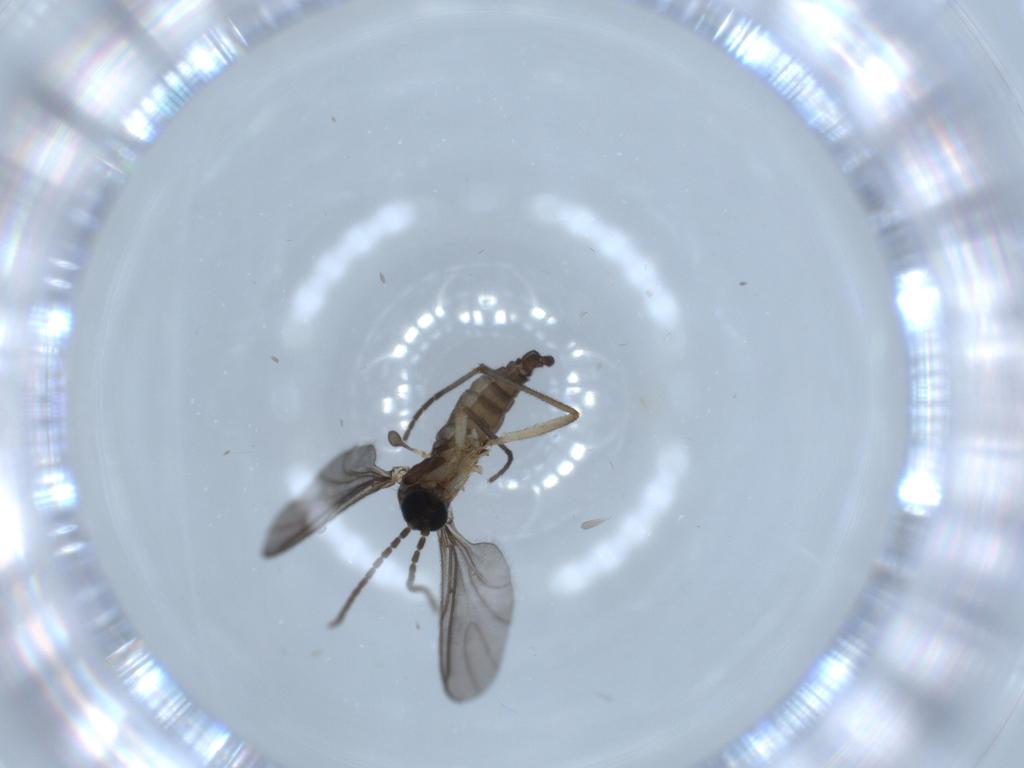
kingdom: Animalia
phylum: Arthropoda
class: Insecta
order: Diptera
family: Sciaridae
